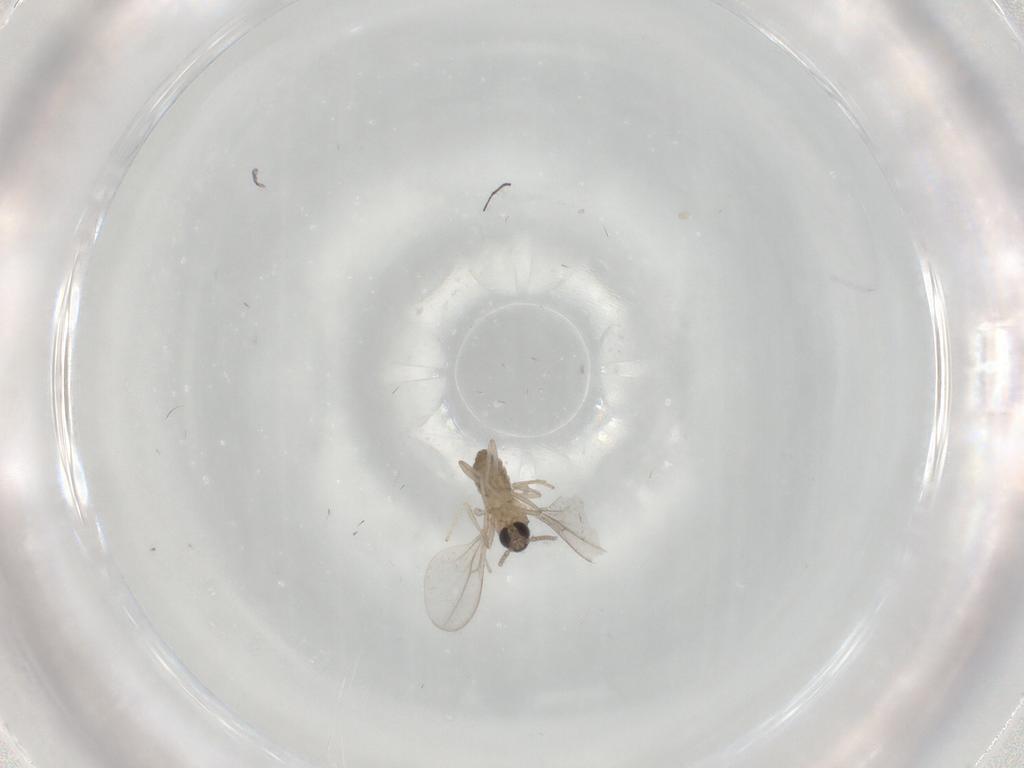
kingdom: Animalia
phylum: Arthropoda
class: Insecta
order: Diptera
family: Cecidomyiidae
